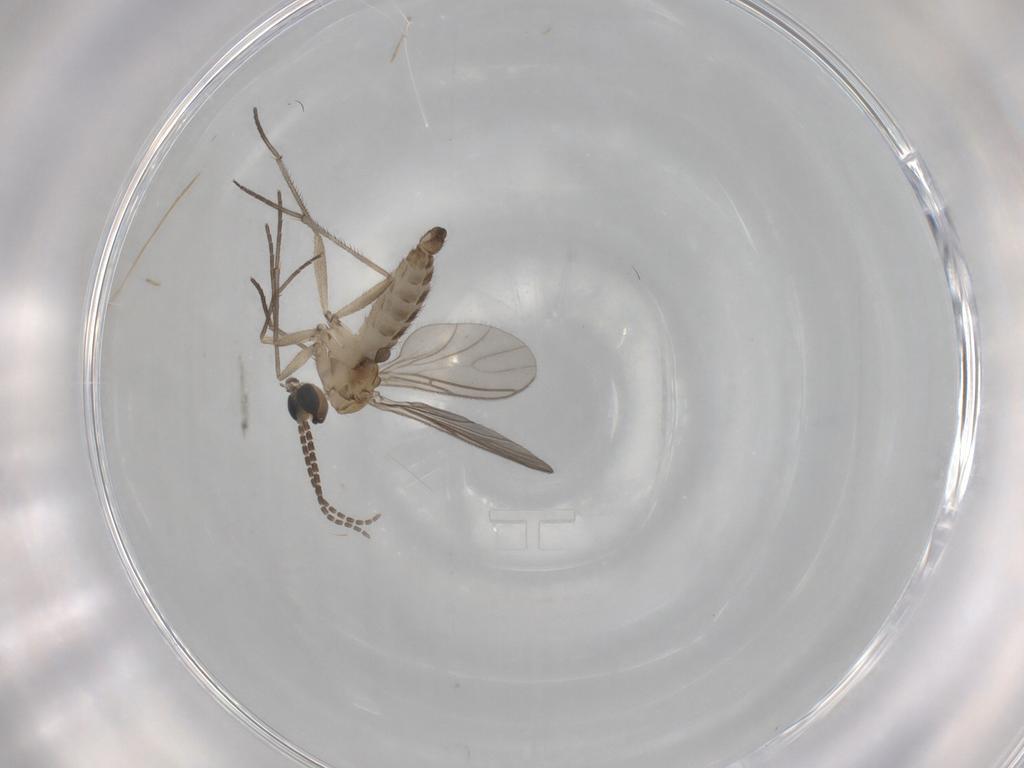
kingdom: Animalia
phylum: Arthropoda
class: Insecta
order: Diptera
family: Sciaridae
